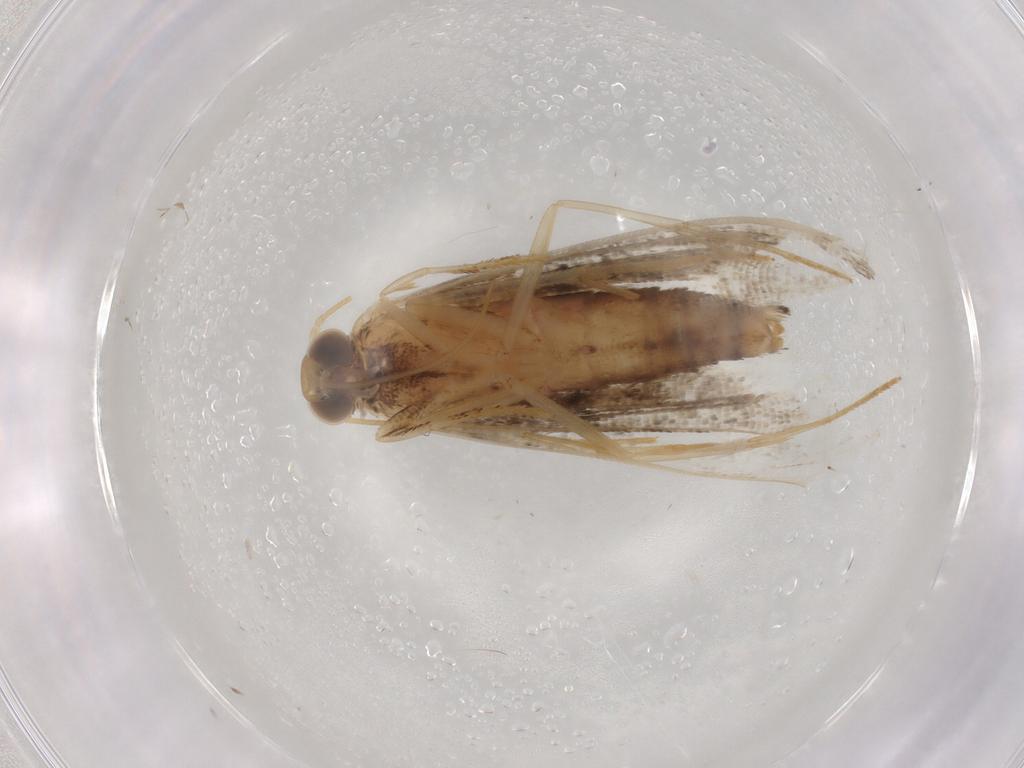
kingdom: Animalia
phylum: Arthropoda
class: Insecta
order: Lepidoptera
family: Erebidae
